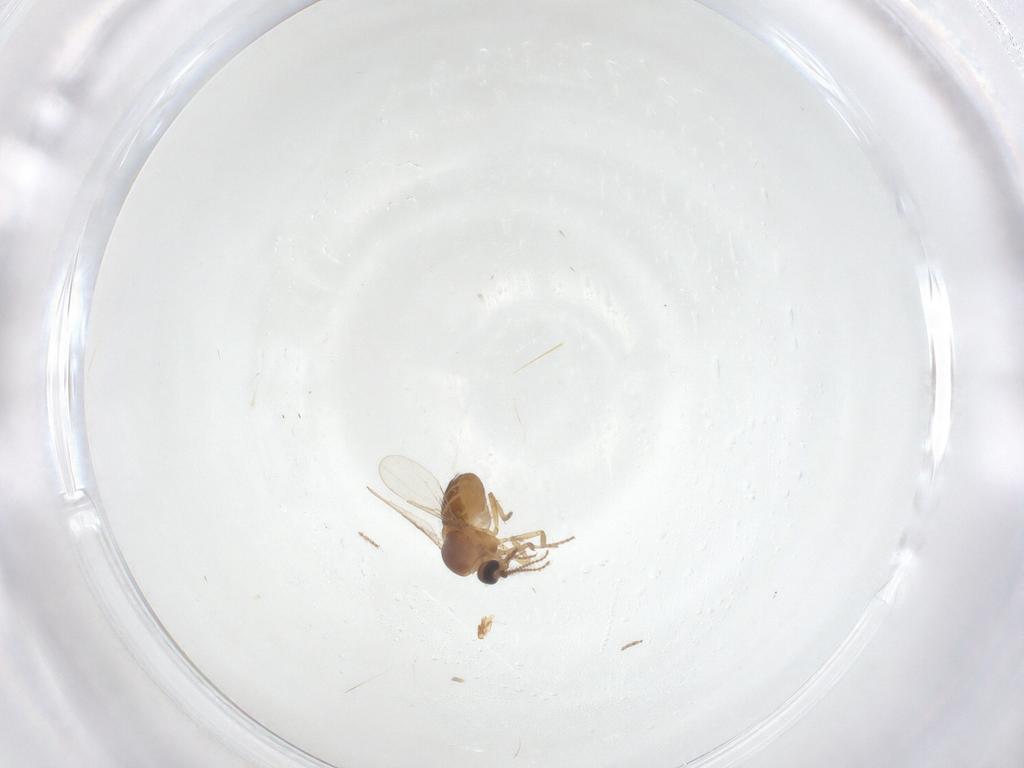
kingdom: Animalia
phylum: Arthropoda
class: Insecta
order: Diptera
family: Ceratopogonidae
